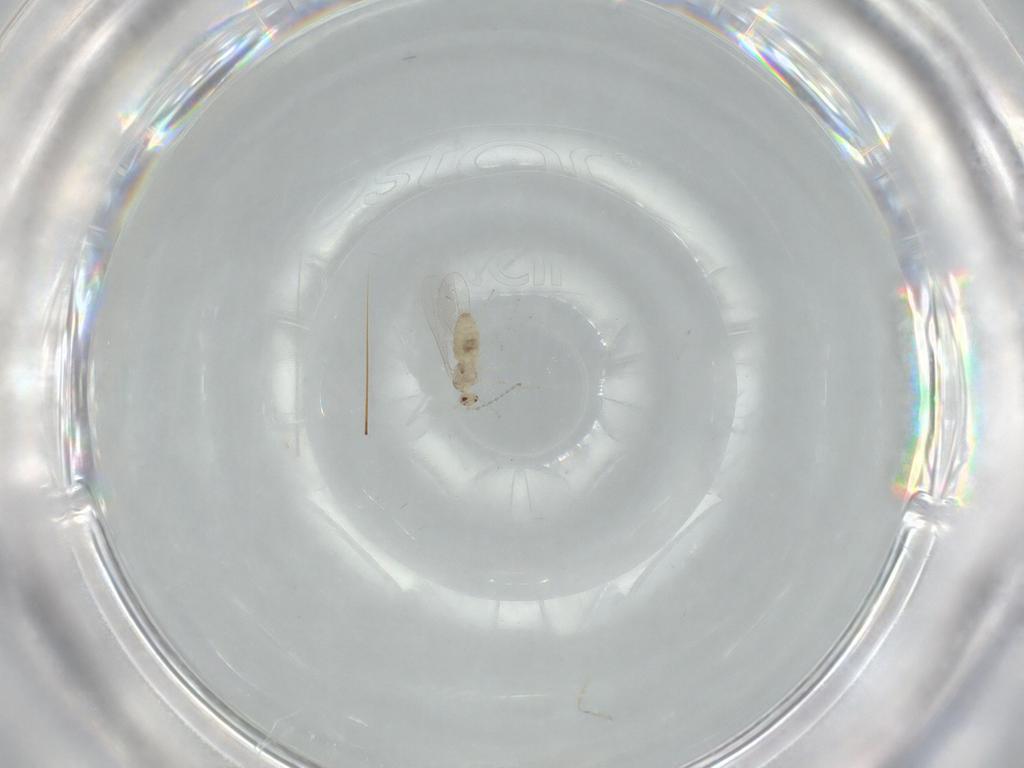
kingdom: Animalia
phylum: Arthropoda
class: Insecta
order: Diptera
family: Cecidomyiidae
